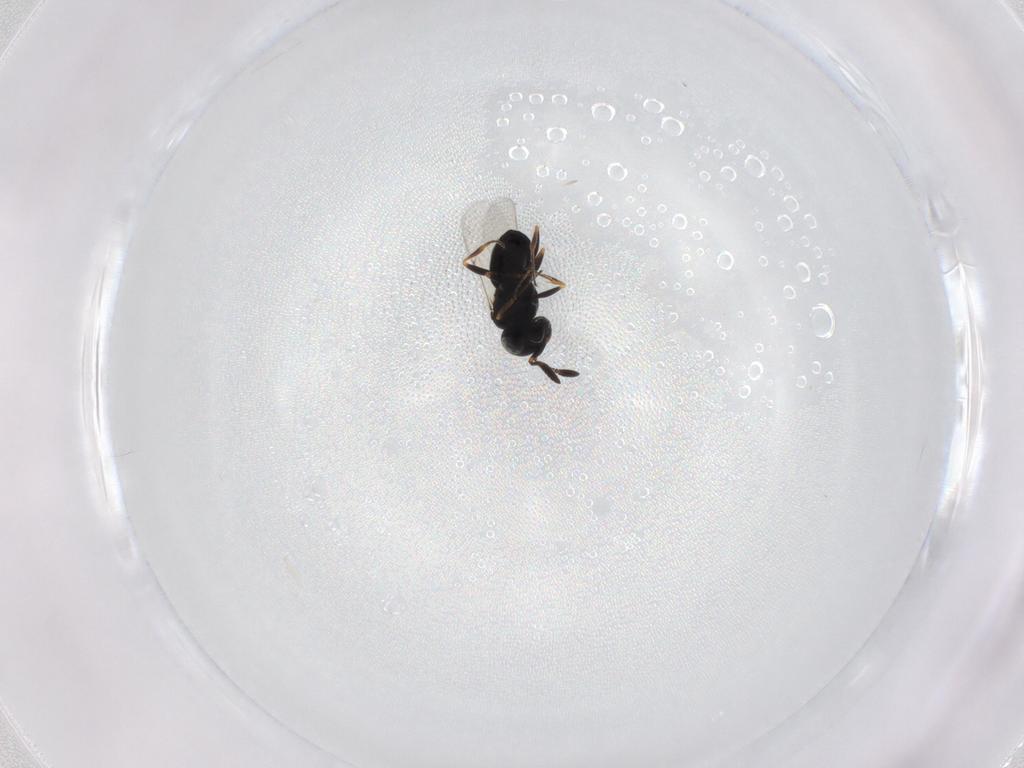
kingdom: Animalia
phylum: Arthropoda
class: Insecta
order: Hymenoptera
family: Scelionidae
